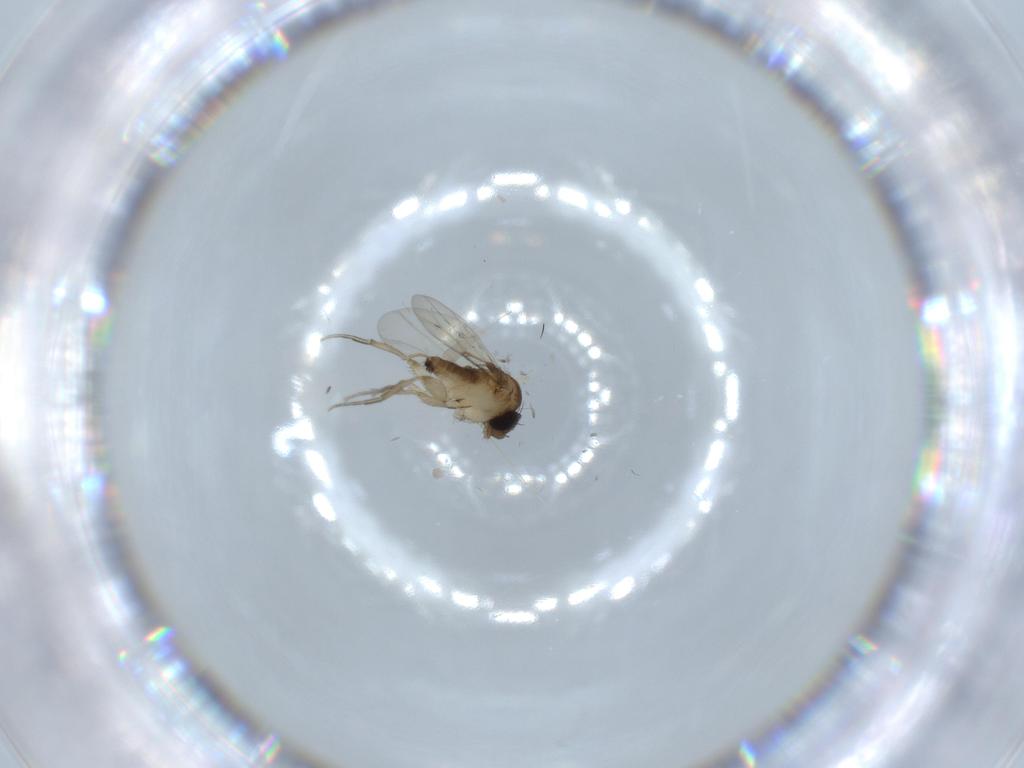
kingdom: Animalia
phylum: Arthropoda
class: Insecta
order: Diptera
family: Phoridae
